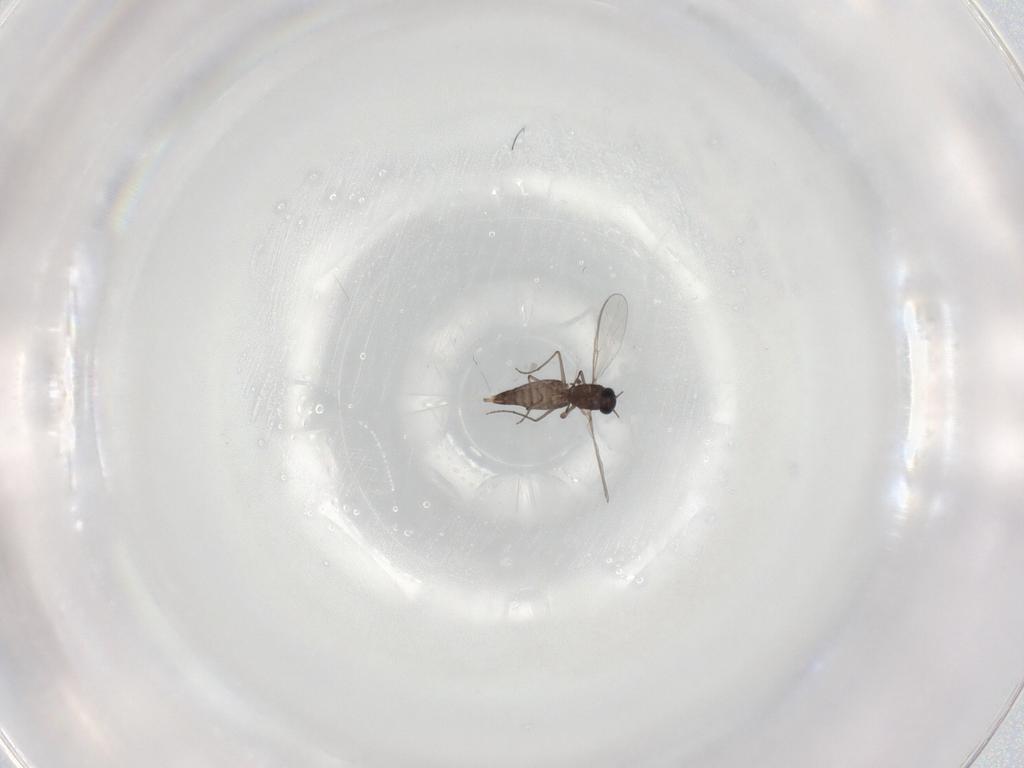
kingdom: Animalia
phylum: Arthropoda
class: Insecta
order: Diptera
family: Chironomidae
